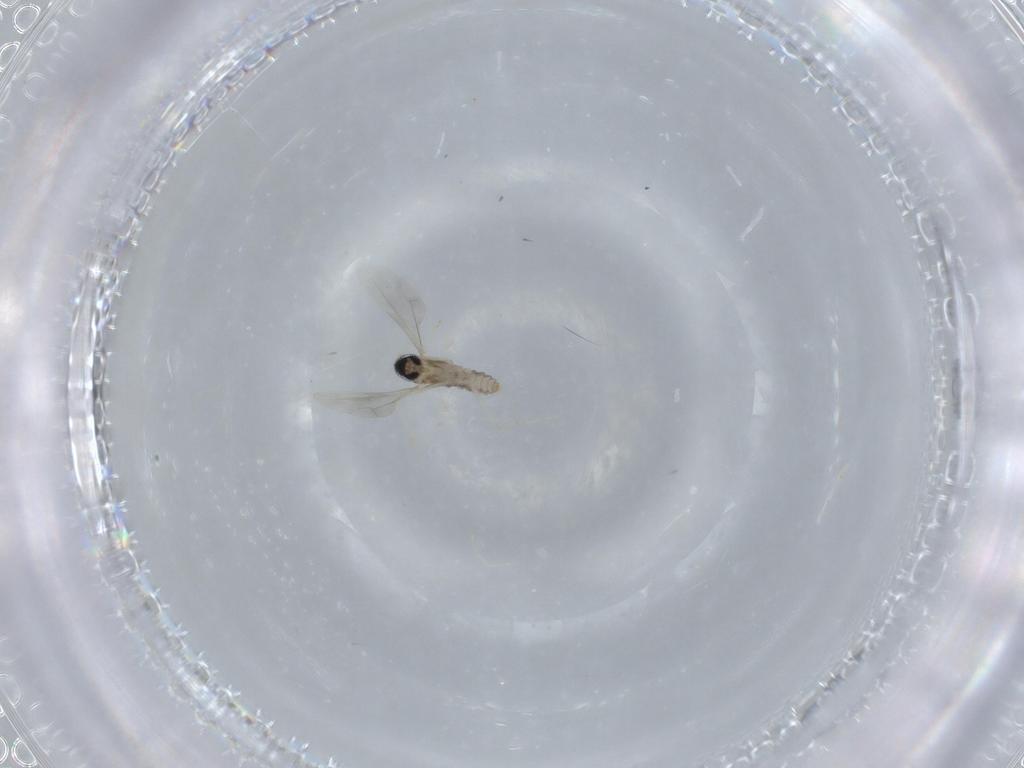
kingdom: Animalia
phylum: Arthropoda
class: Insecta
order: Diptera
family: Cecidomyiidae
